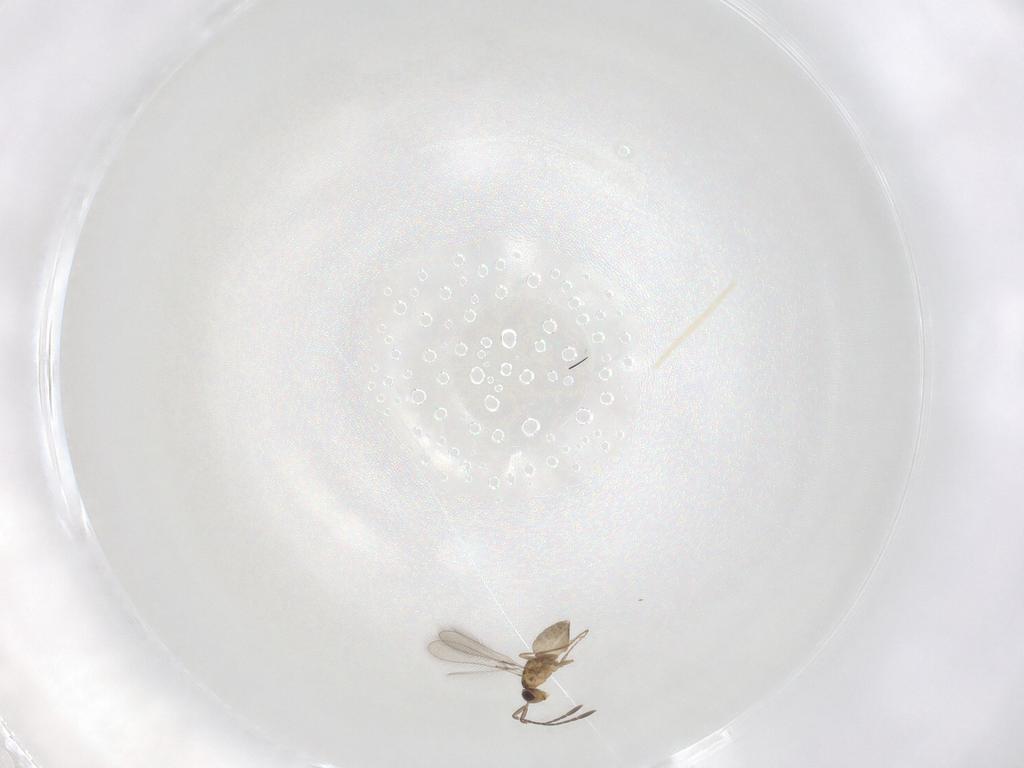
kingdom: Animalia
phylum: Arthropoda
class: Insecta
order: Hymenoptera
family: Mymaridae
